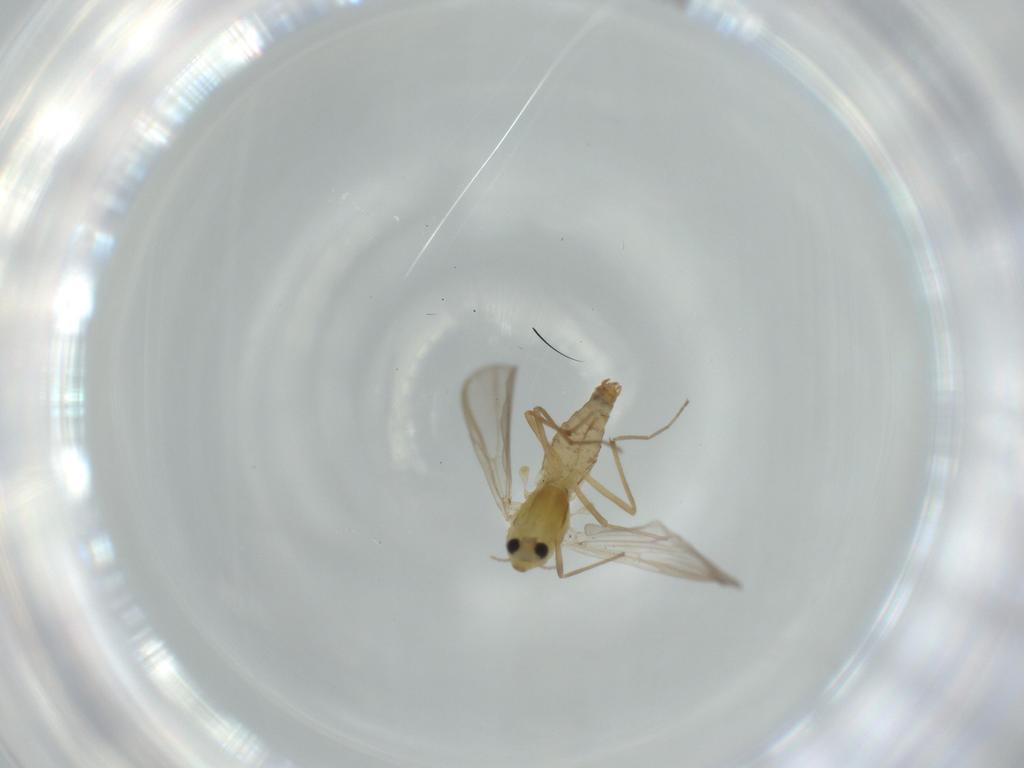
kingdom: Animalia
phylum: Arthropoda
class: Insecta
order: Diptera
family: Chironomidae
